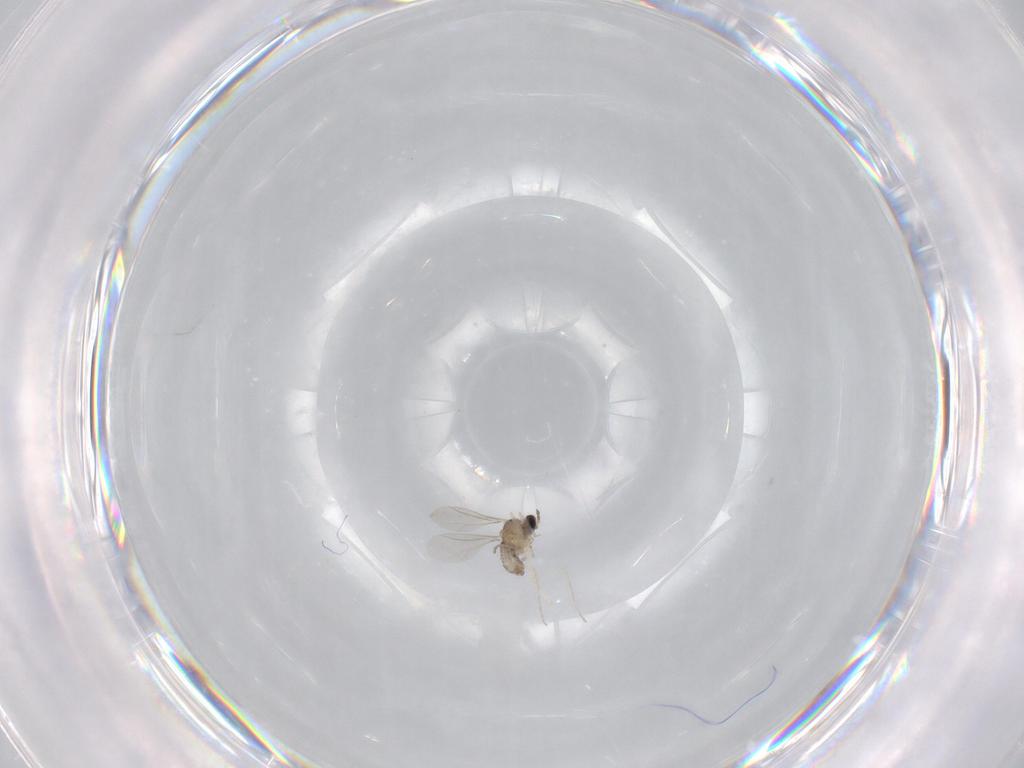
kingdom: Animalia
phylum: Arthropoda
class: Insecta
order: Diptera
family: Cecidomyiidae
